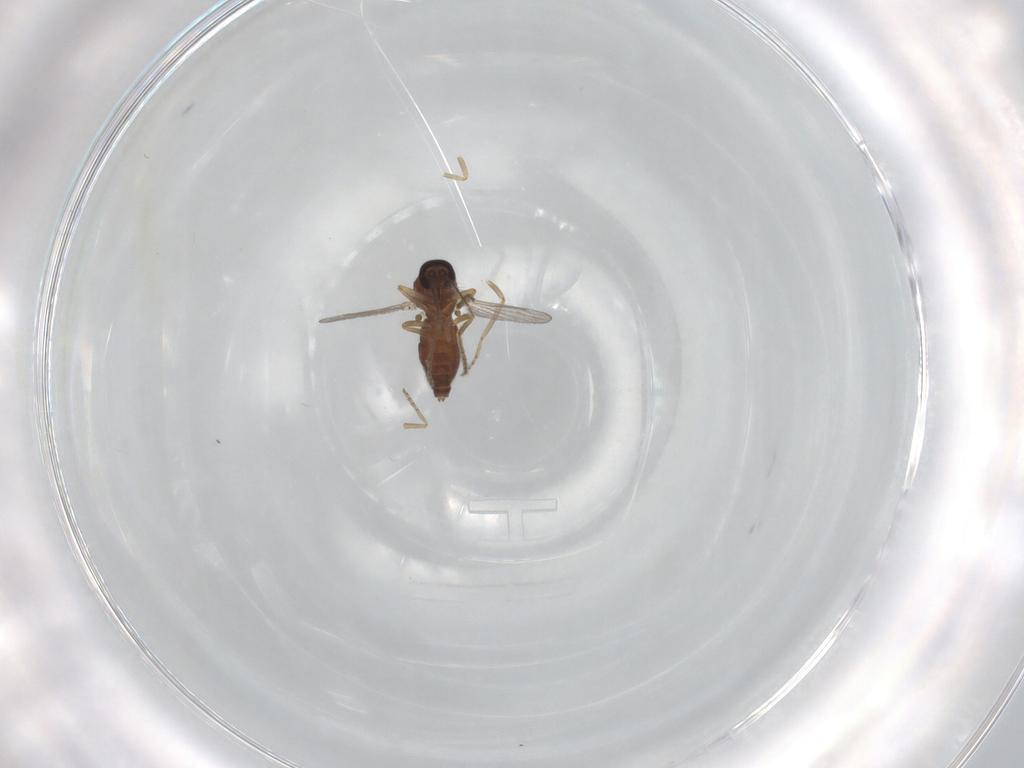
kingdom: Animalia
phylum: Arthropoda
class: Insecta
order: Diptera
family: Ceratopogonidae
